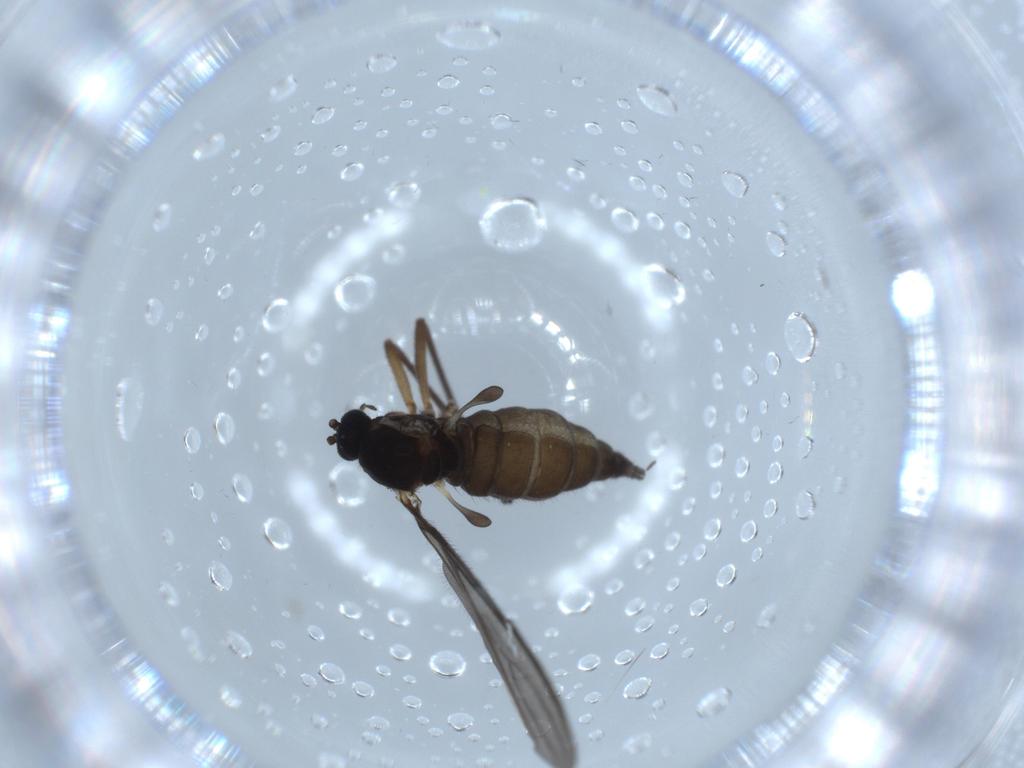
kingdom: Animalia
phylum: Arthropoda
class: Insecta
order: Diptera
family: Sciaridae
